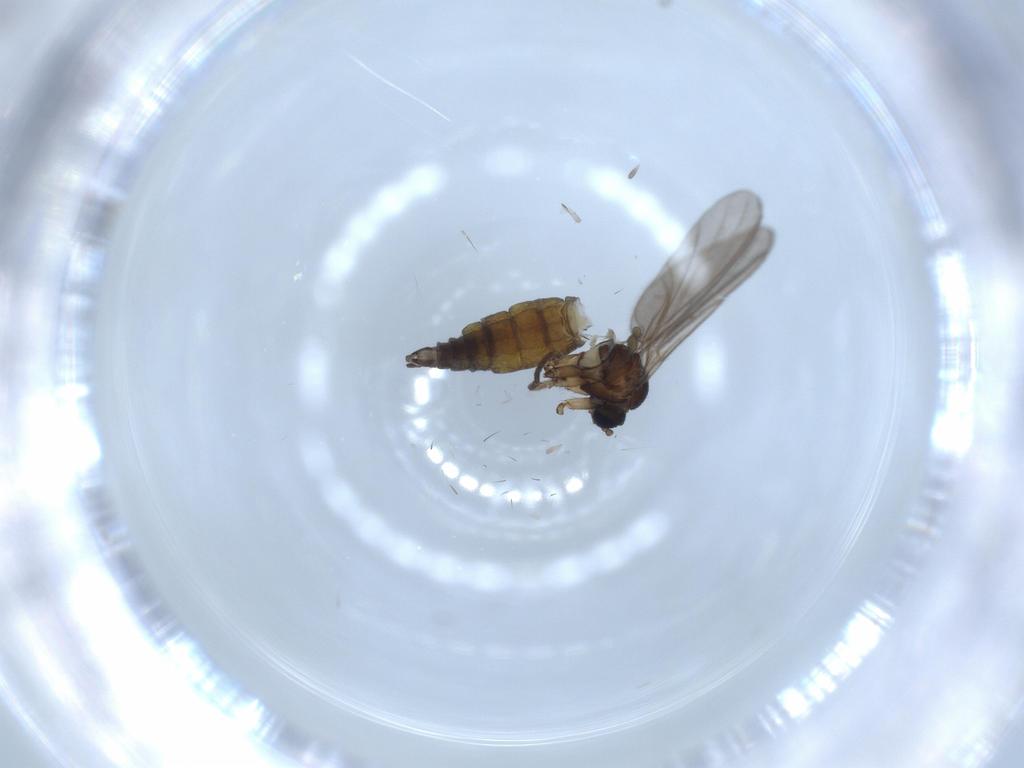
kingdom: Animalia
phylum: Arthropoda
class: Insecta
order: Diptera
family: Sciaridae
